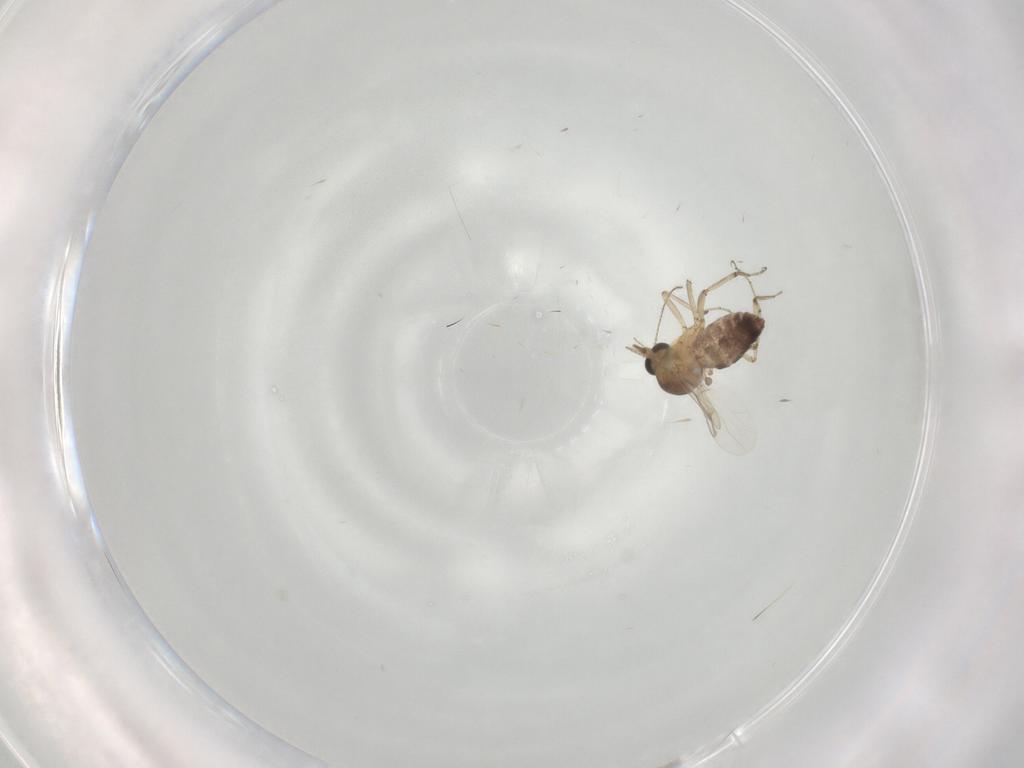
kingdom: Animalia
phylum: Arthropoda
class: Insecta
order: Diptera
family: Ceratopogonidae
